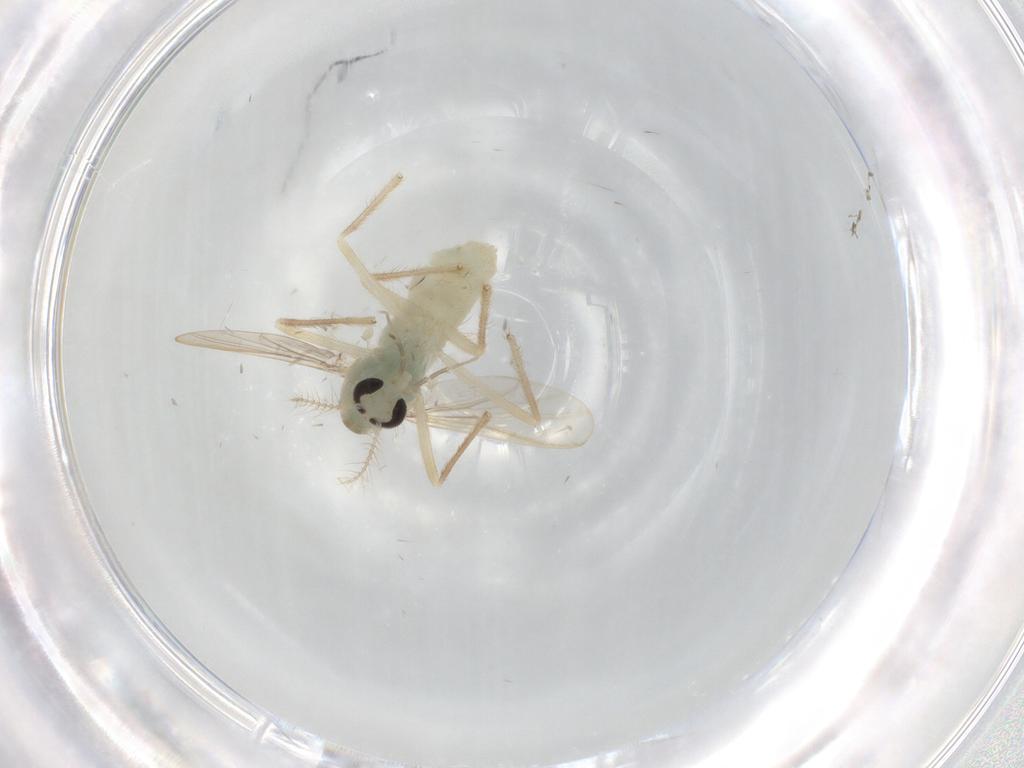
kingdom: Animalia
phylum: Arthropoda
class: Insecta
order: Diptera
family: Chironomidae
